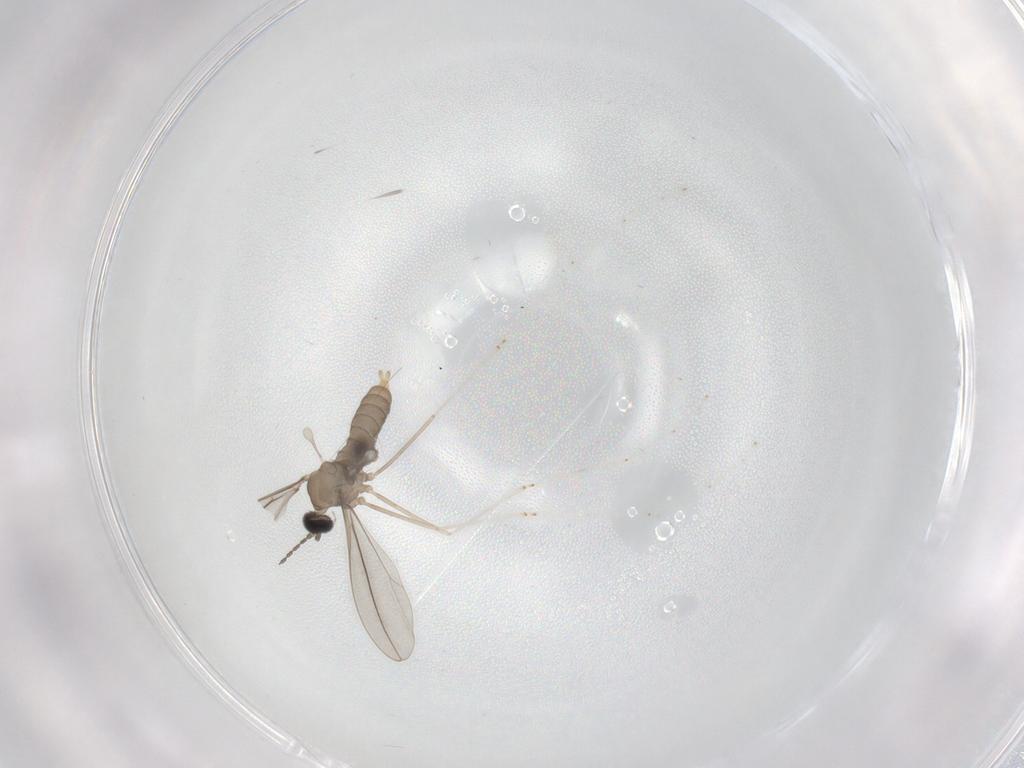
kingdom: Animalia
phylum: Arthropoda
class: Insecta
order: Diptera
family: Cecidomyiidae
